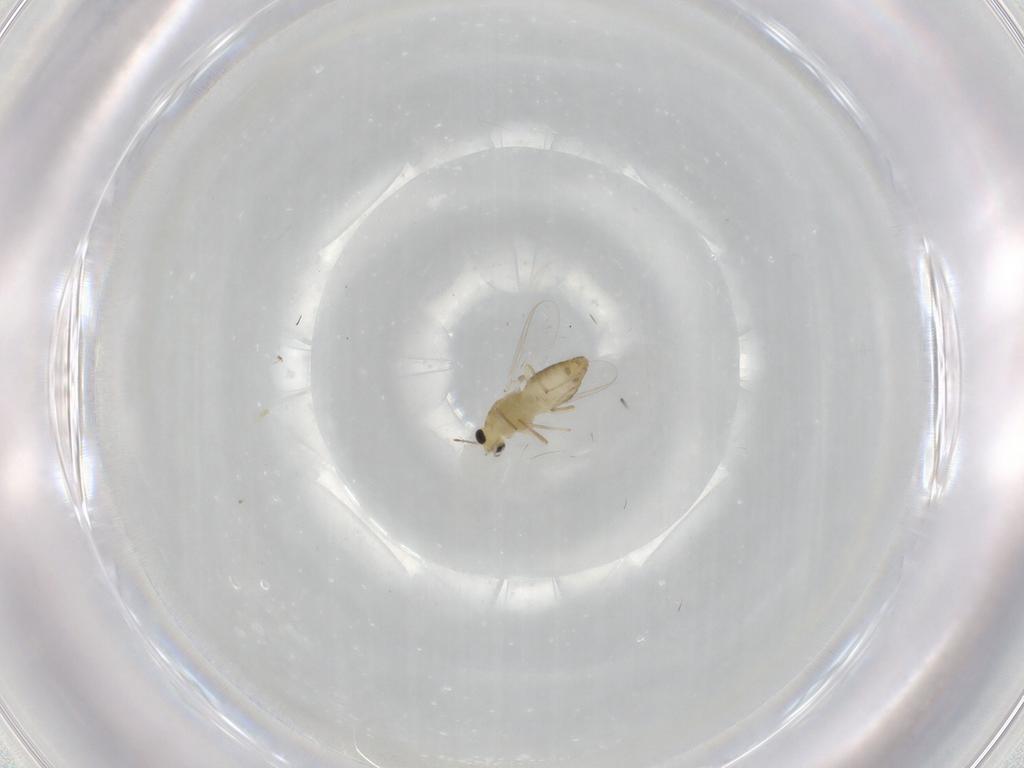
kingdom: Animalia
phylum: Arthropoda
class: Insecta
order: Diptera
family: Chironomidae
